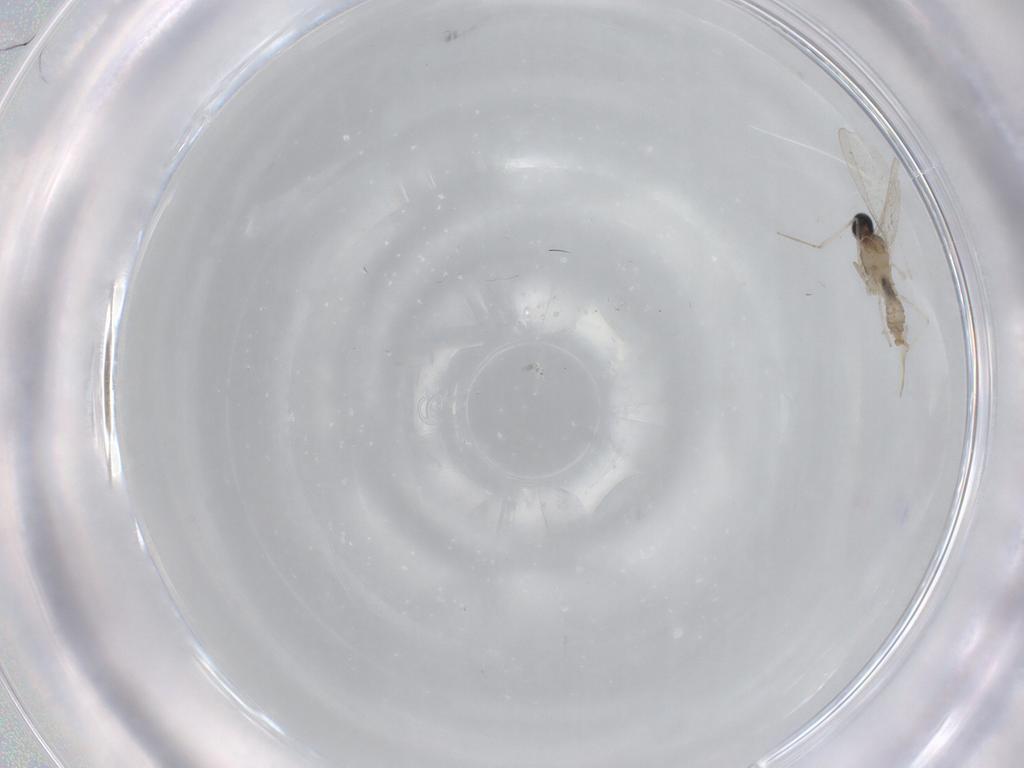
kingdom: Animalia
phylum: Arthropoda
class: Insecta
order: Diptera
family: Cecidomyiidae
